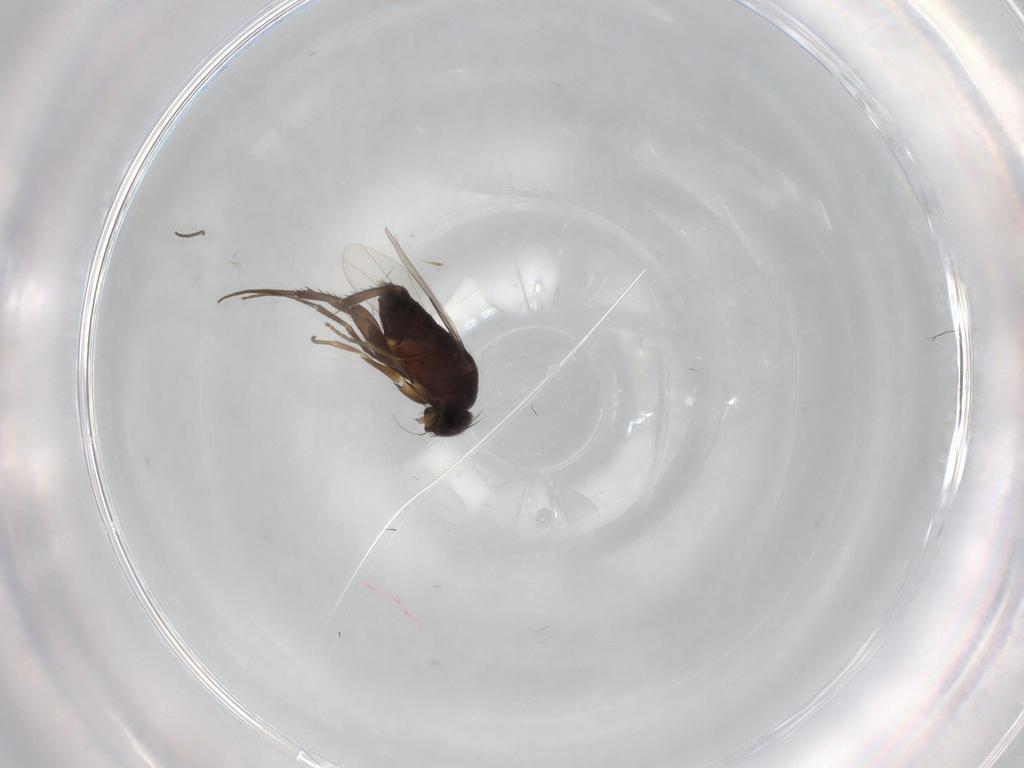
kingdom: Animalia
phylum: Arthropoda
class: Insecta
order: Diptera
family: Phoridae
